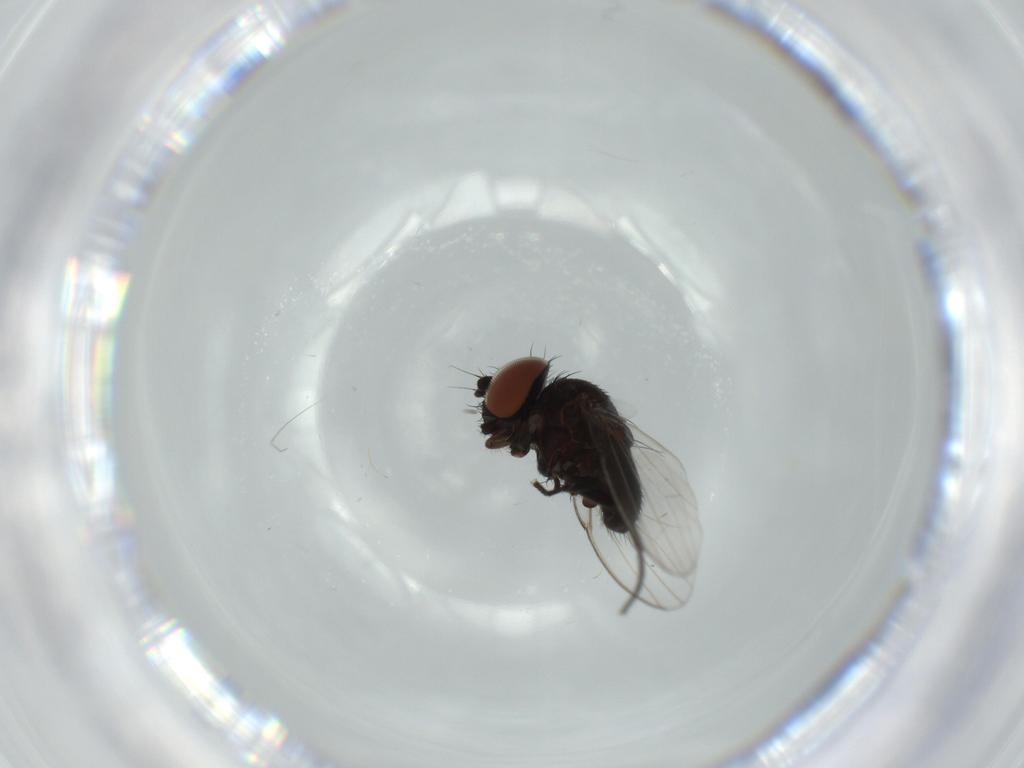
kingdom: Animalia
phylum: Arthropoda
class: Insecta
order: Diptera
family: Milichiidae
